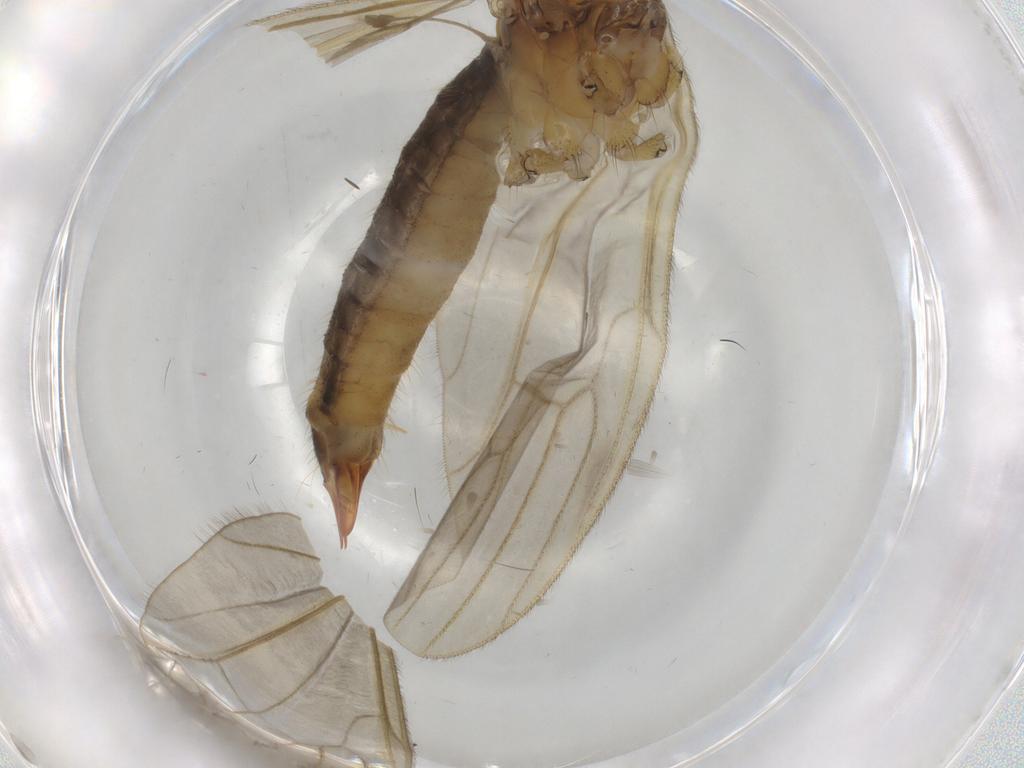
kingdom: Animalia
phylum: Arthropoda
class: Insecta
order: Diptera
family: Limoniidae
